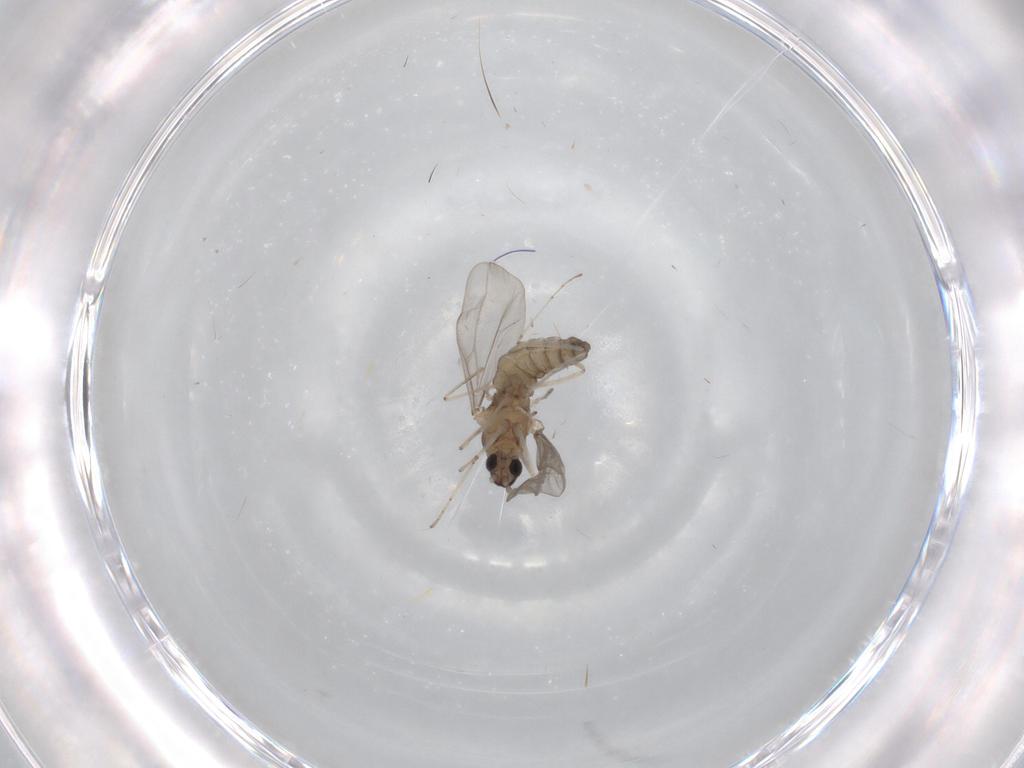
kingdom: Animalia
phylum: Arthropoda
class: Insecta
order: Diptera
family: Cecidomyiidae
